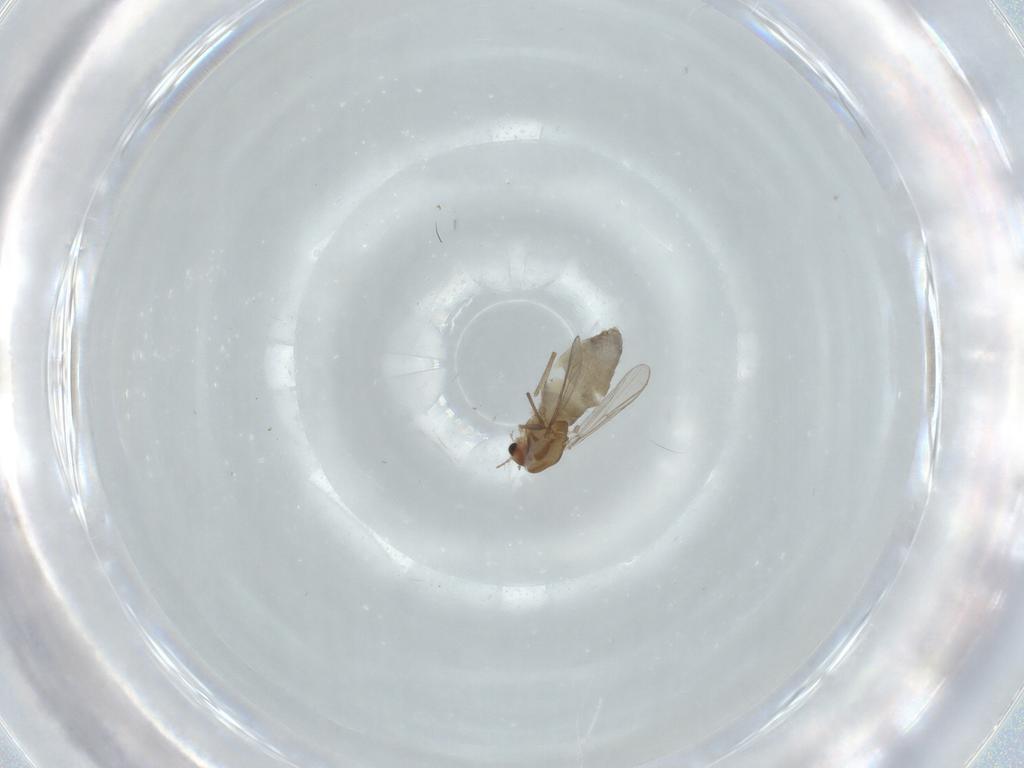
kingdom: Animalia
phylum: Arthropoda
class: Insecta
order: Diptera
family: Chironomidae
